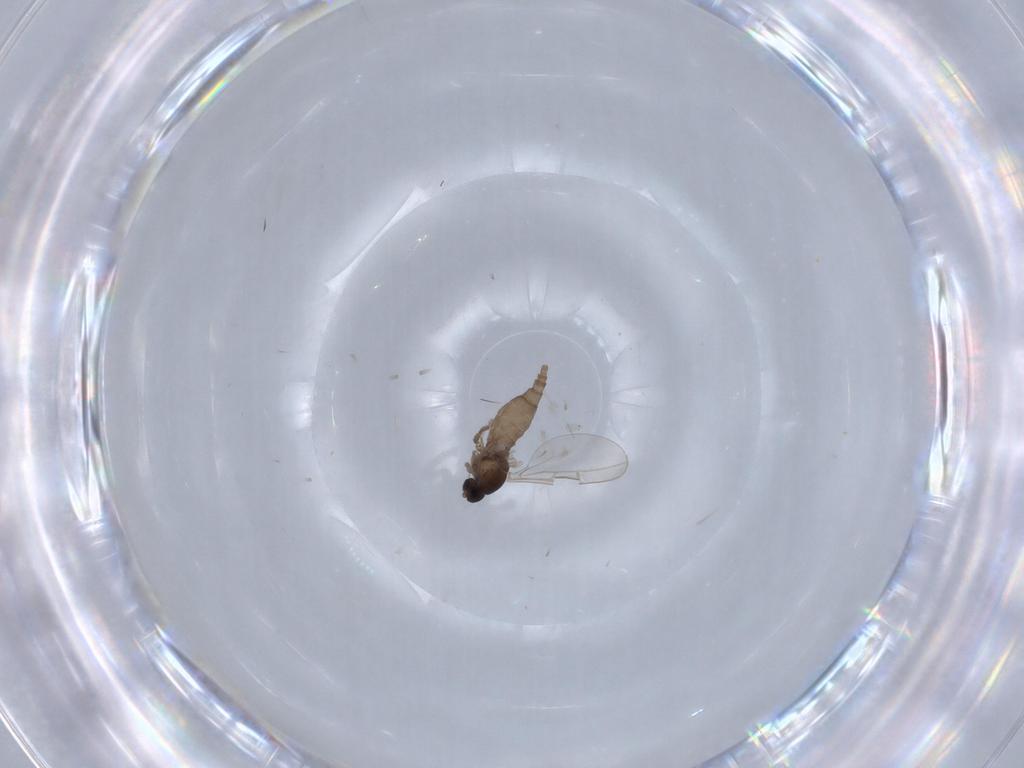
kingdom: Animalia
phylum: Arthropoda
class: Insecta
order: Diptera
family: Cecidomyiidae
